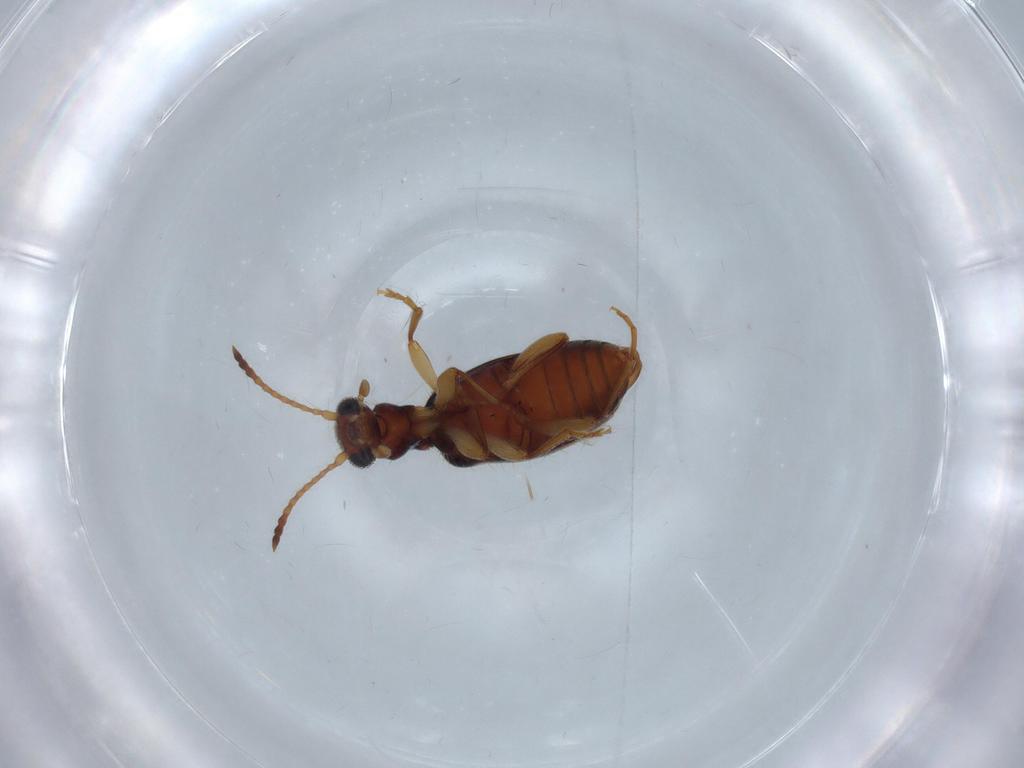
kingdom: Animalia
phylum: Arthropoda
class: Insecta
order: Coleoptera
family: Anthicidae
